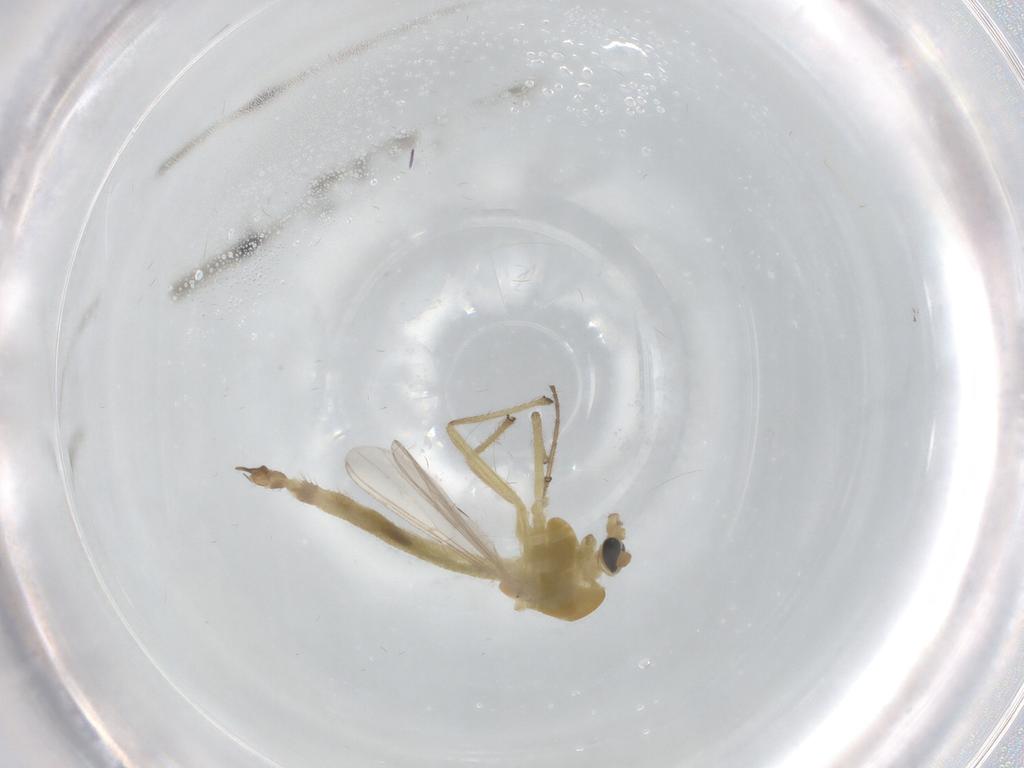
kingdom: Animalia
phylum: Arthropoda
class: Insecta
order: Diptera
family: Chironomidae
